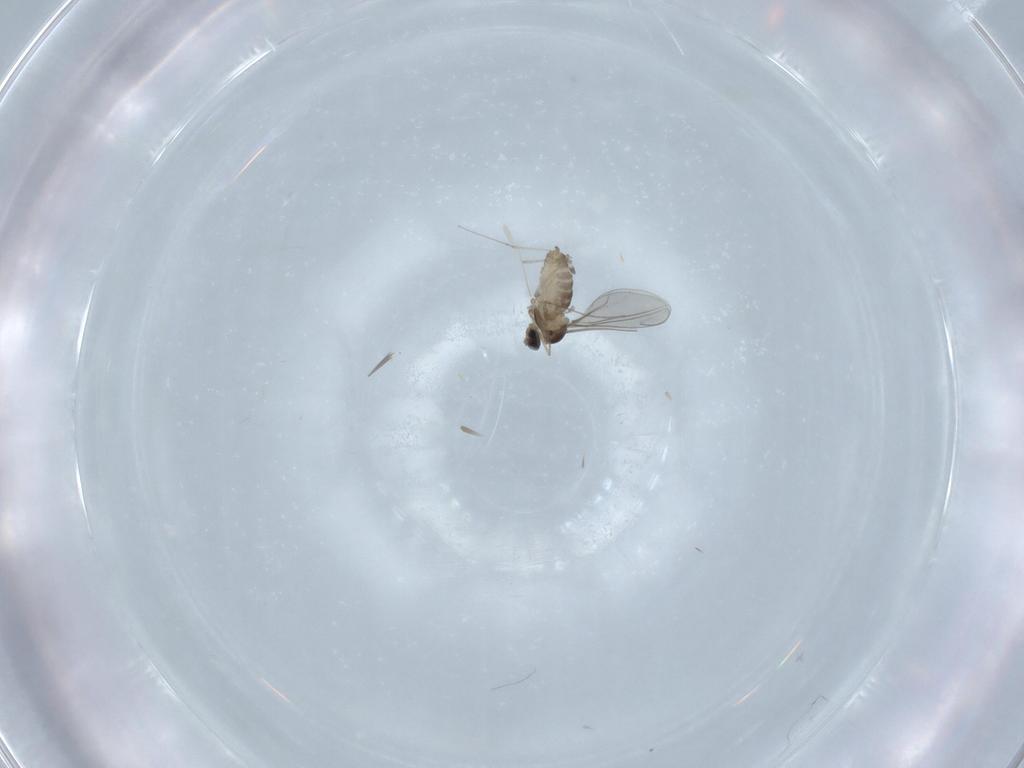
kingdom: Animalia
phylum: Arthropoda
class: Insecta
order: Diptera
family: Cecidomyiidae
